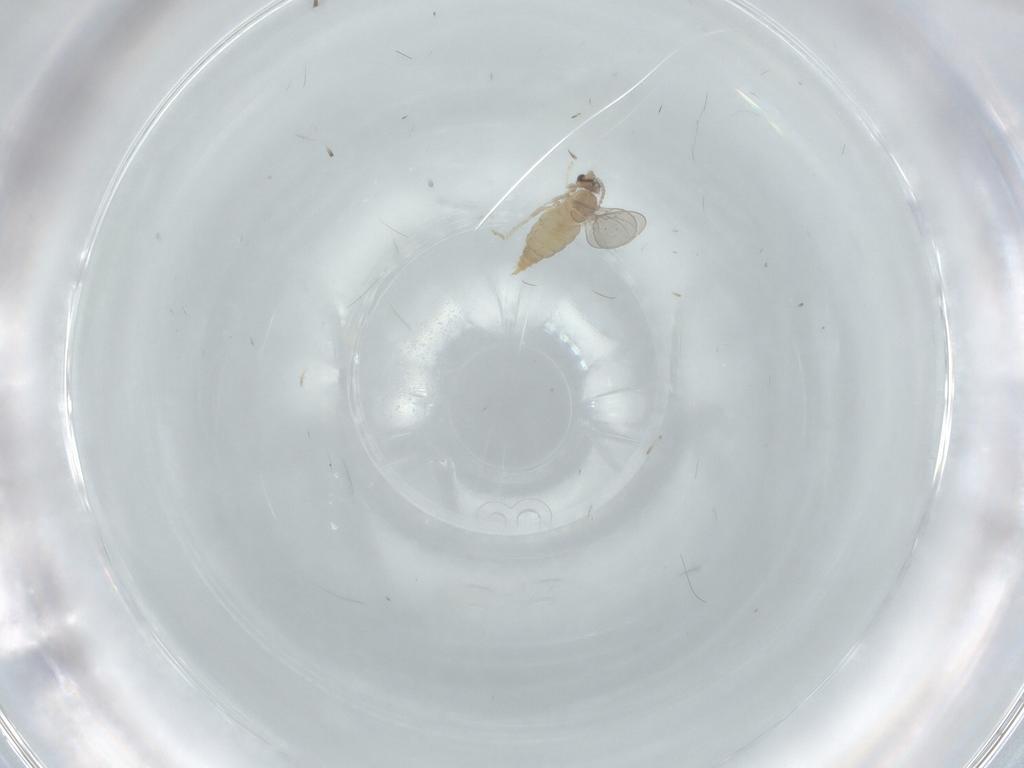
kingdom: Animalia
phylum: Arthropoda
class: Insecta
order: Diptera
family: Cecidomyiidae
